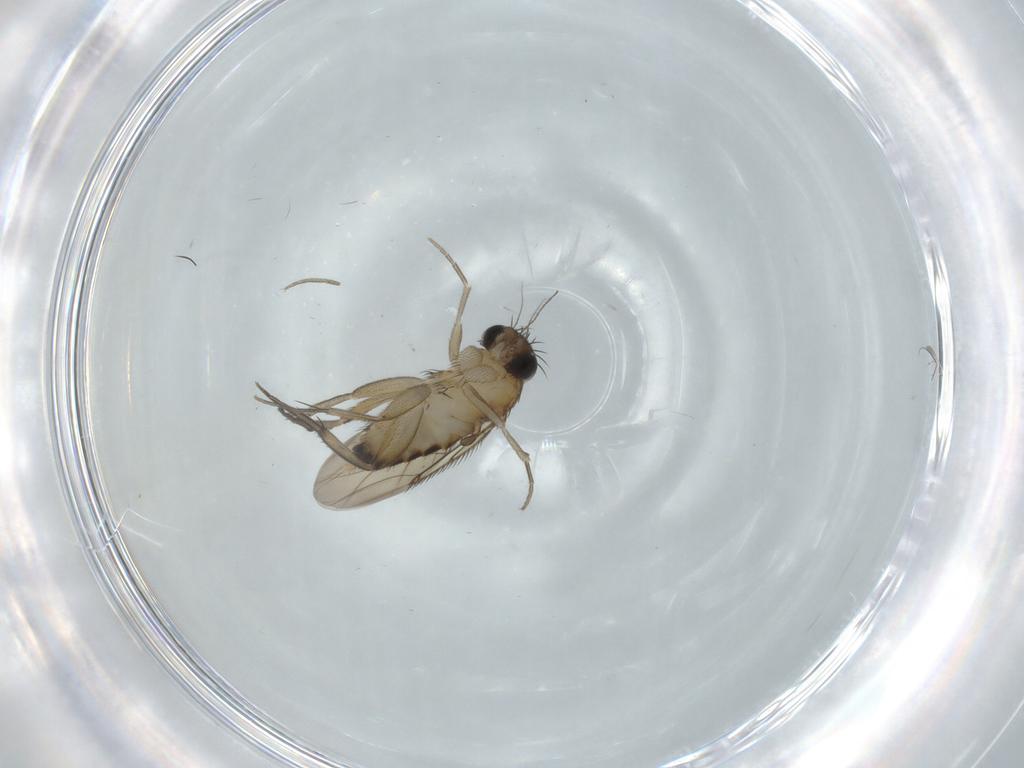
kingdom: Animalia
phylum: Arthropoda
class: Insecta
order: Diptera
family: Phoridae
